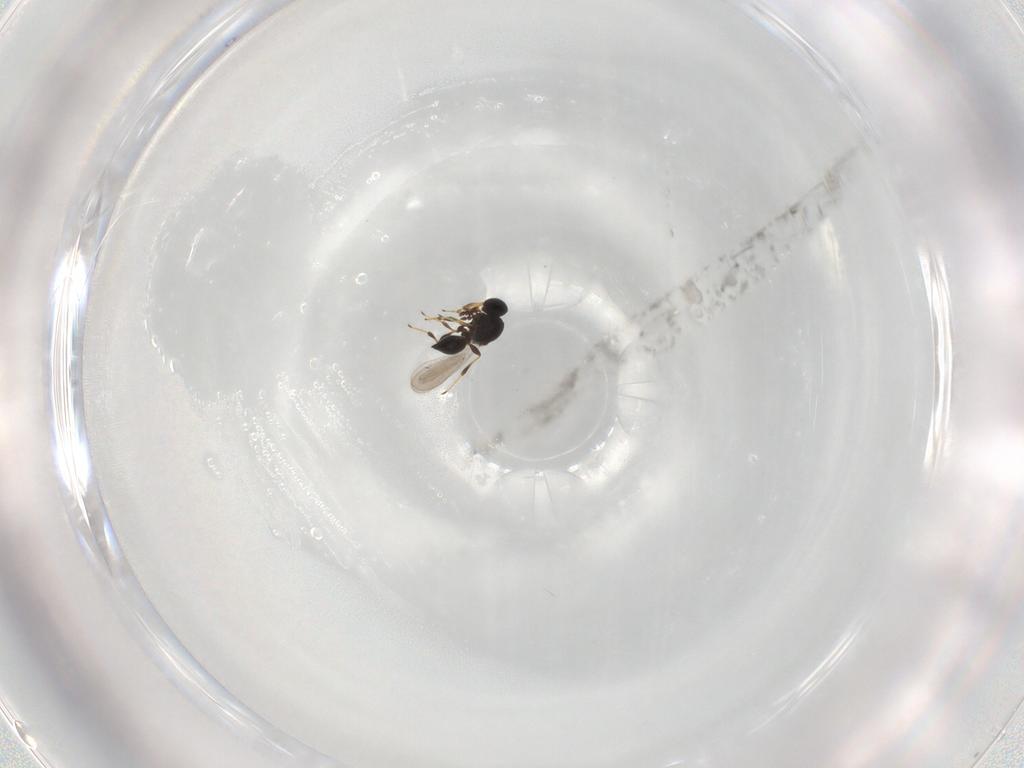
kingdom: Animalia
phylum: Arthropoda
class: Insecta
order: Hymenoptera
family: Platygastridae
